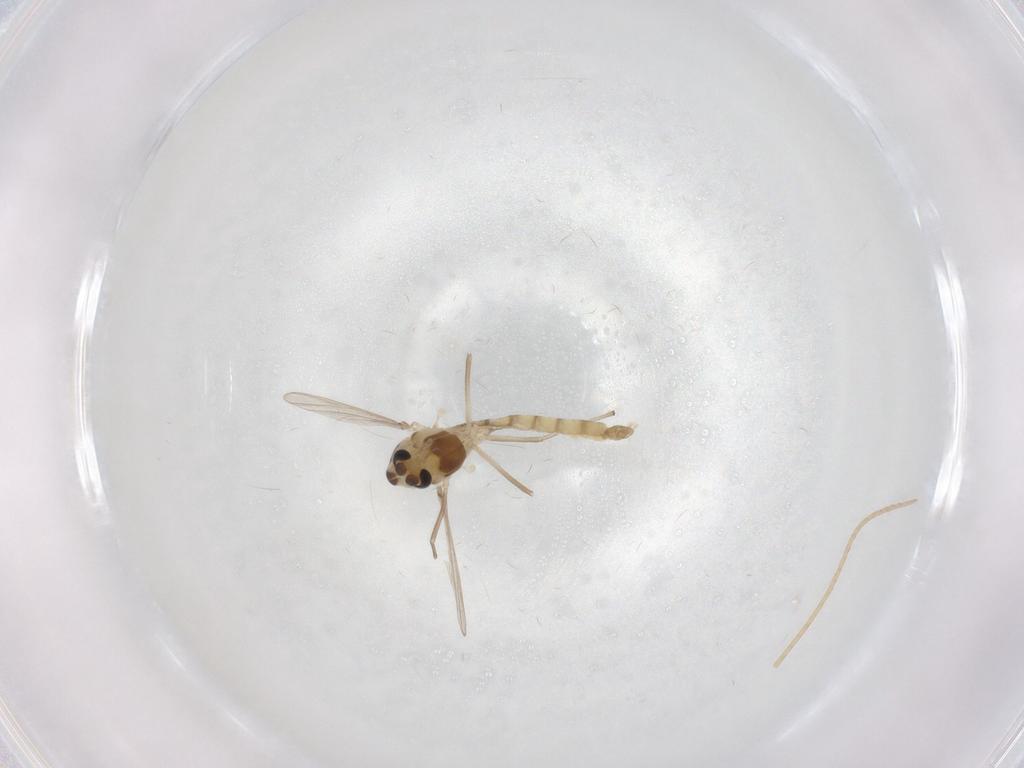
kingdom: Animalia
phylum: Arthropoda
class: Insecta
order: Diptera
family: Chironomidae
